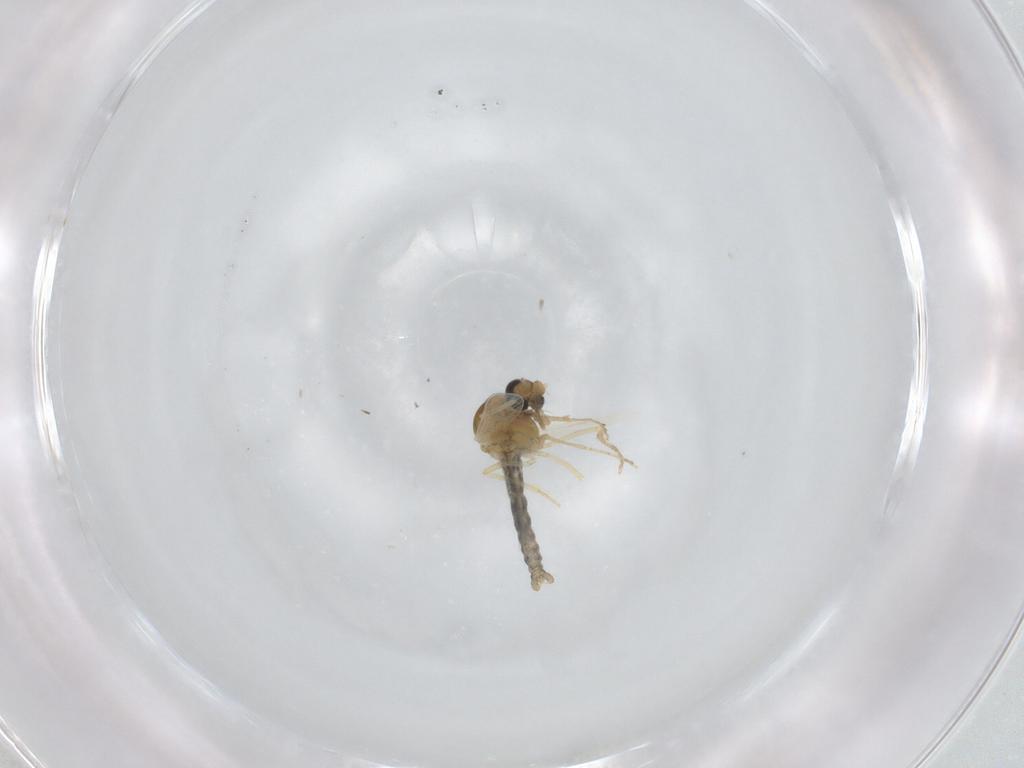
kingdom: Animalia
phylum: Arthropoda
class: Insecta
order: Diptera
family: Ceratopogonidae
